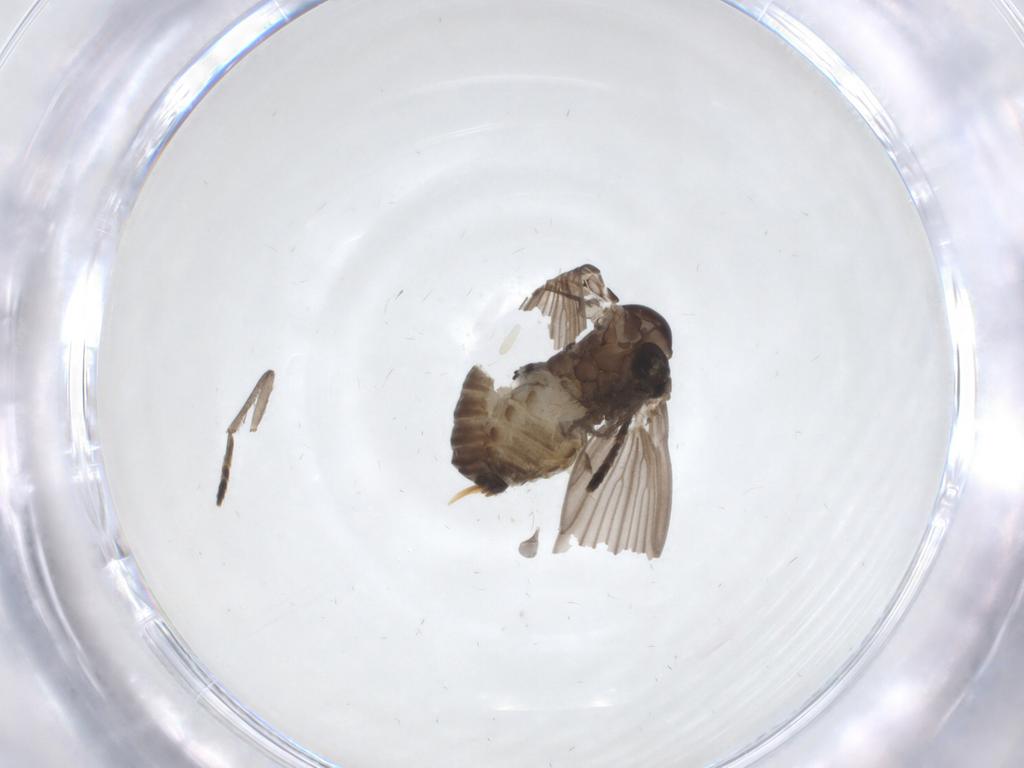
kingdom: Animalia
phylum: Arthropoda
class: Insecta
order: Diptera
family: Psychodidae
